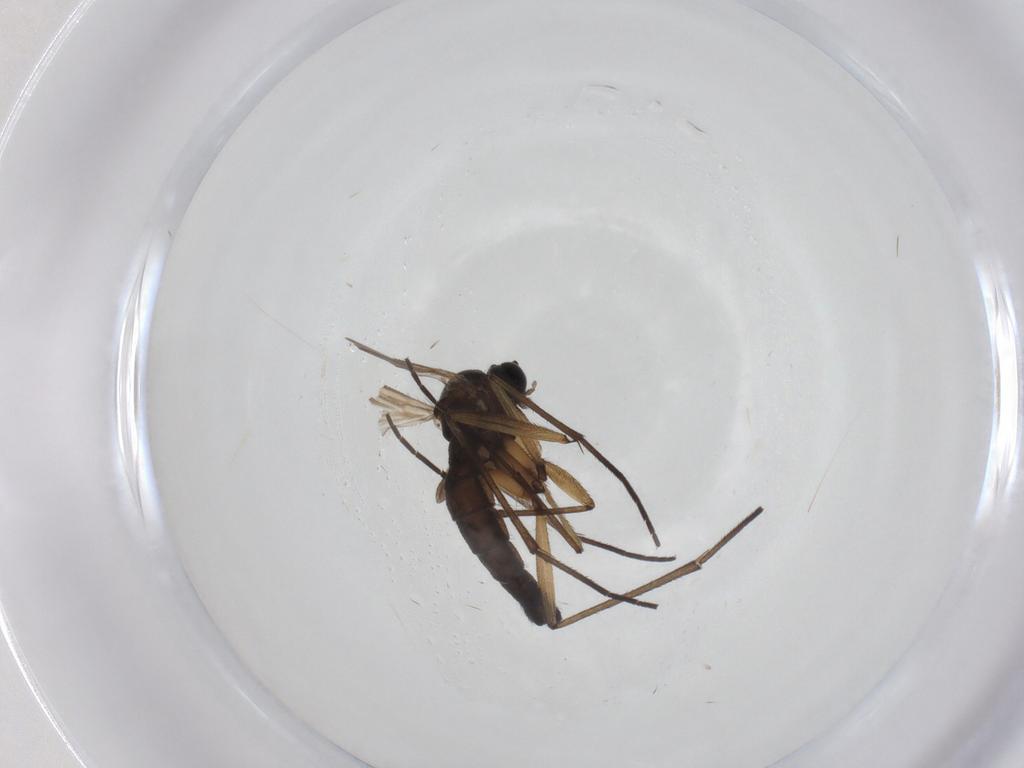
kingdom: Animalia
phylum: Arthropoda
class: Insecta
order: Diptera
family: Sciaridae
